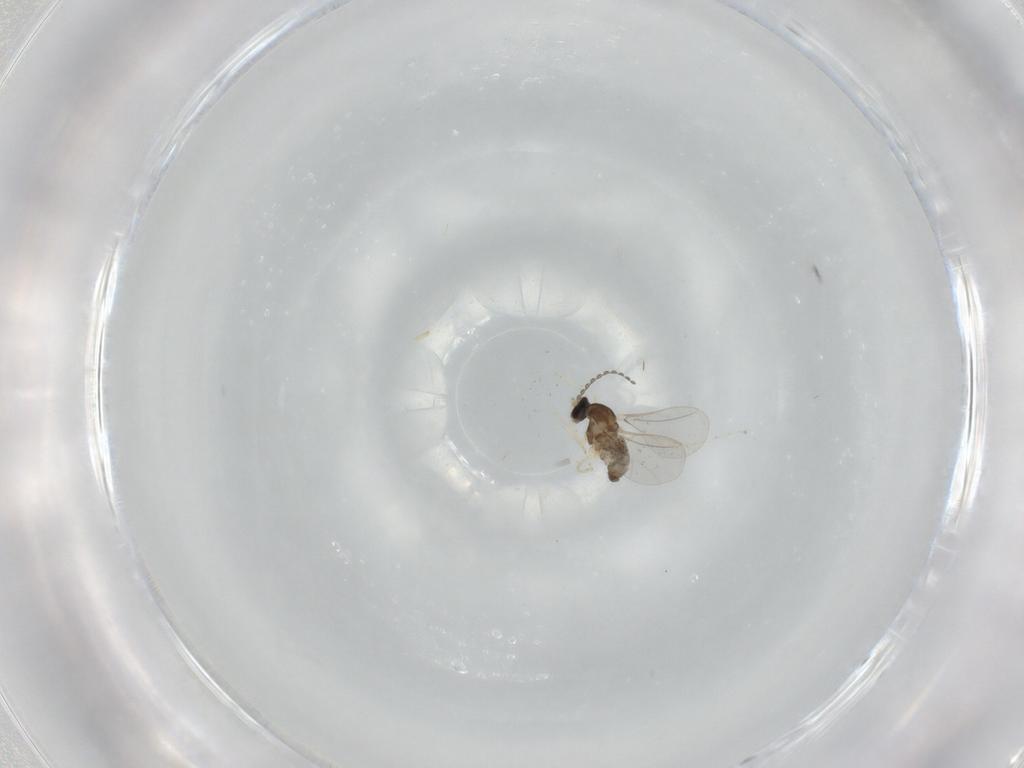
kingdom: Animalia
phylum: Arthropoda
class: Insecta
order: Diptera
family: Cecidomyiidae
